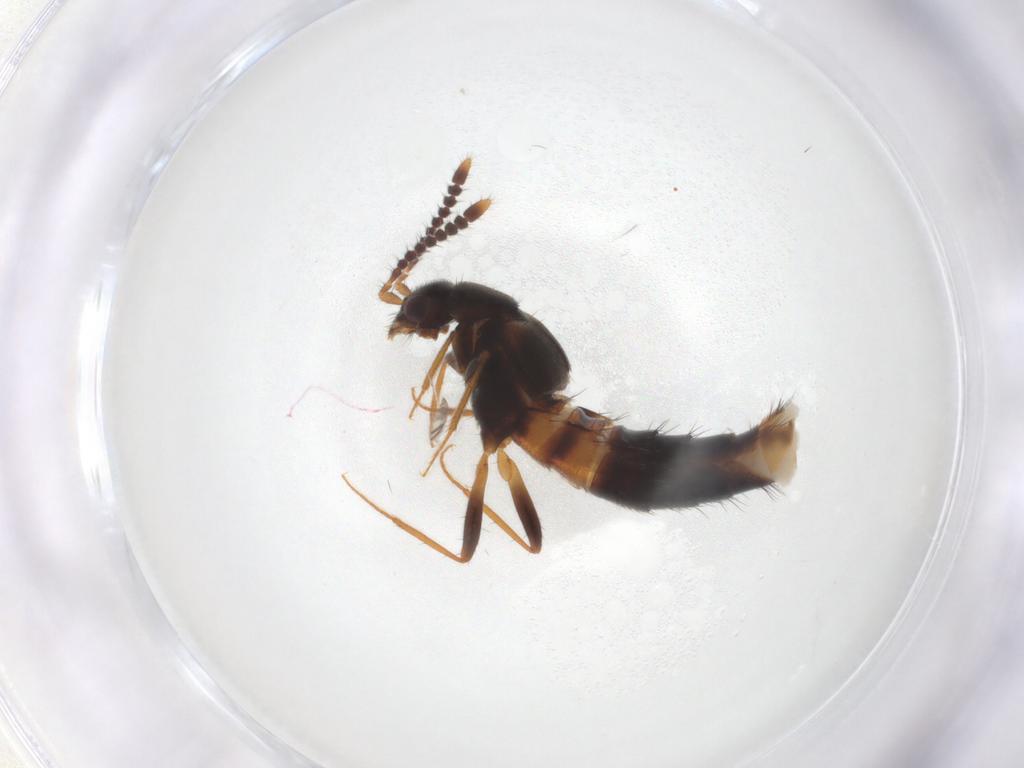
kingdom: Animalia
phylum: Arthropoda
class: Insecta
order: Coleoptera
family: Staphylinidae
